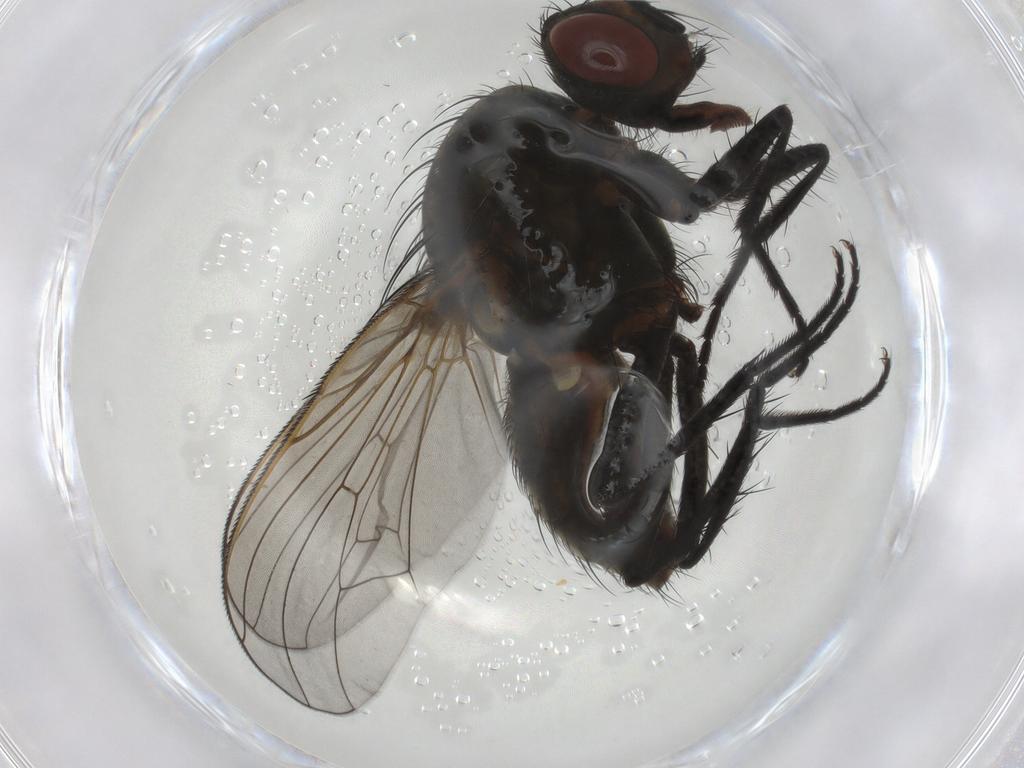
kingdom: Animalia
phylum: Arthropoda
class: Insecta
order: Diptera
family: Anthomyiidae
